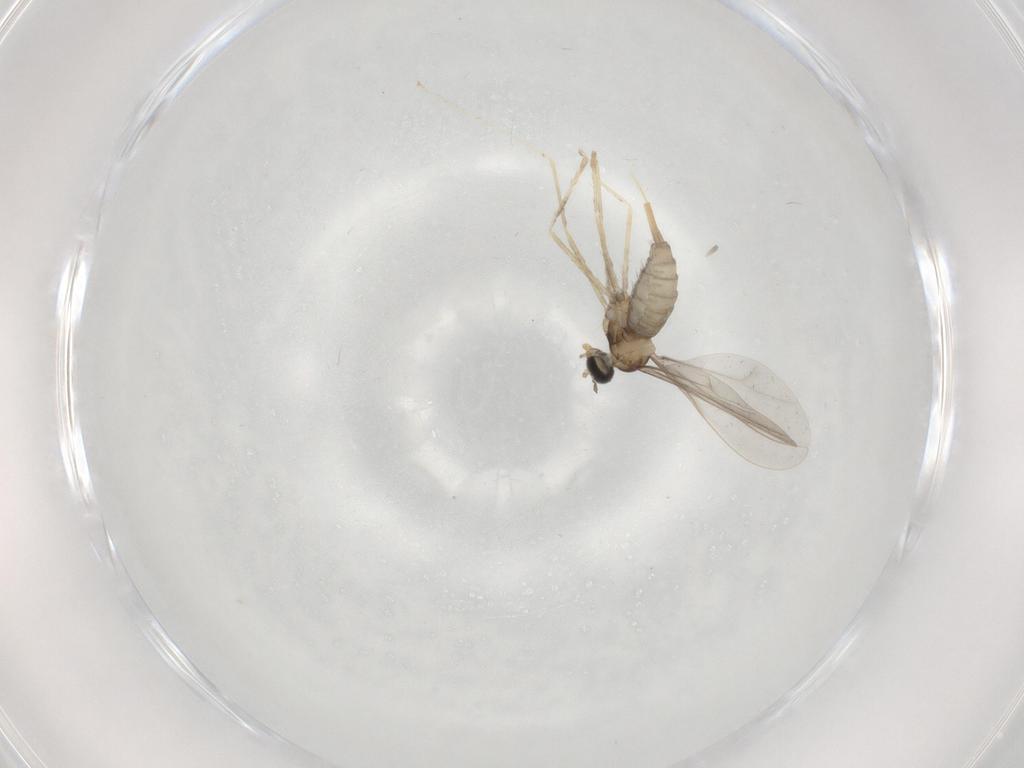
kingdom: Animalia
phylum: Arthropoda
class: Insecta
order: Diptera
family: Cecidomyiidae
